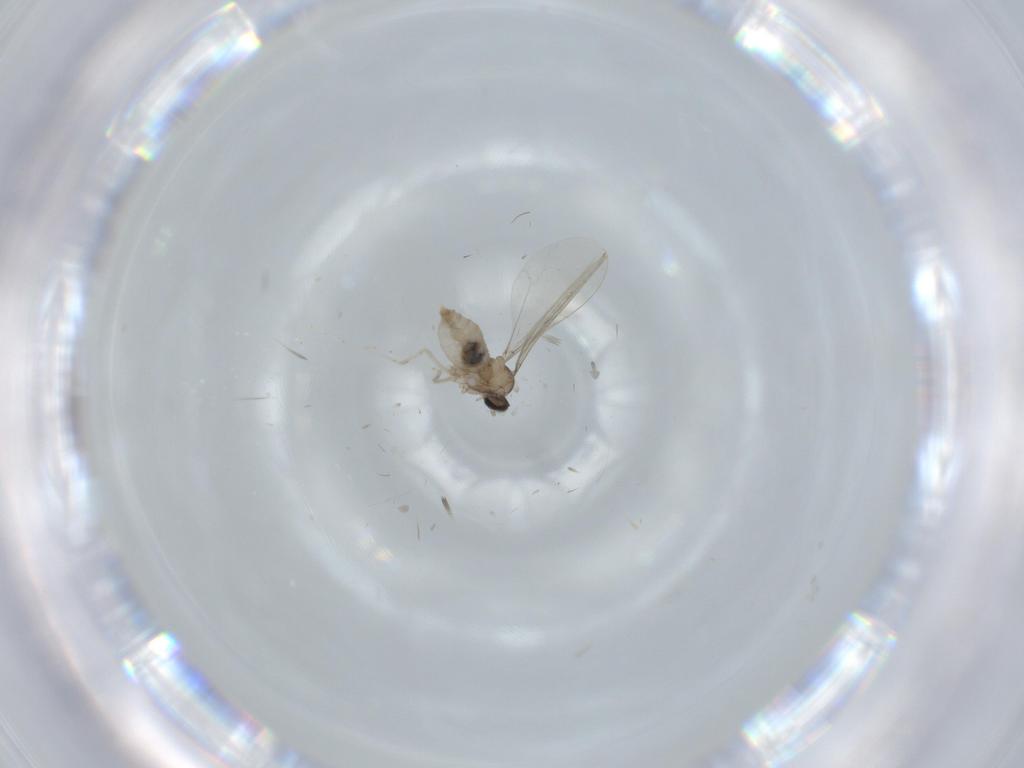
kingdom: Animalia
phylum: Arthropoda
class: Insecta
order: Diptera
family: Cecidomyiidae
